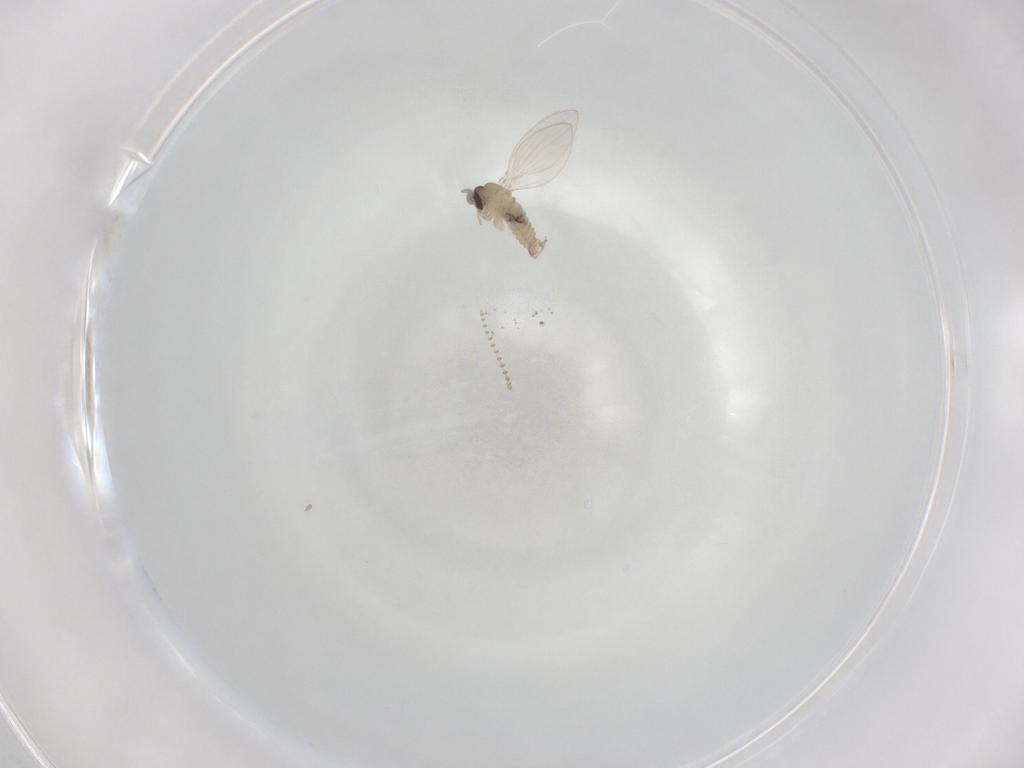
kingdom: Animalia
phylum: Arthropoda
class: Insecta
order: Diptera
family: Psychodidae
